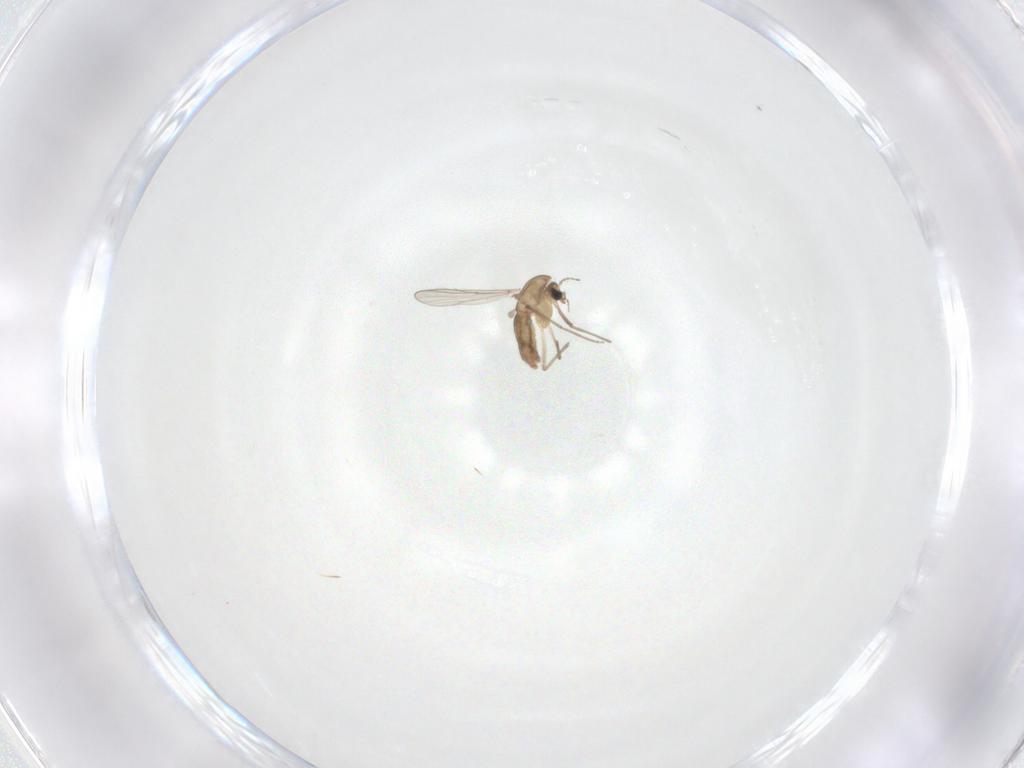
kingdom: Animalia
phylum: Arthropoda
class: Insecta
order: Diptera
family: Chironomidae
